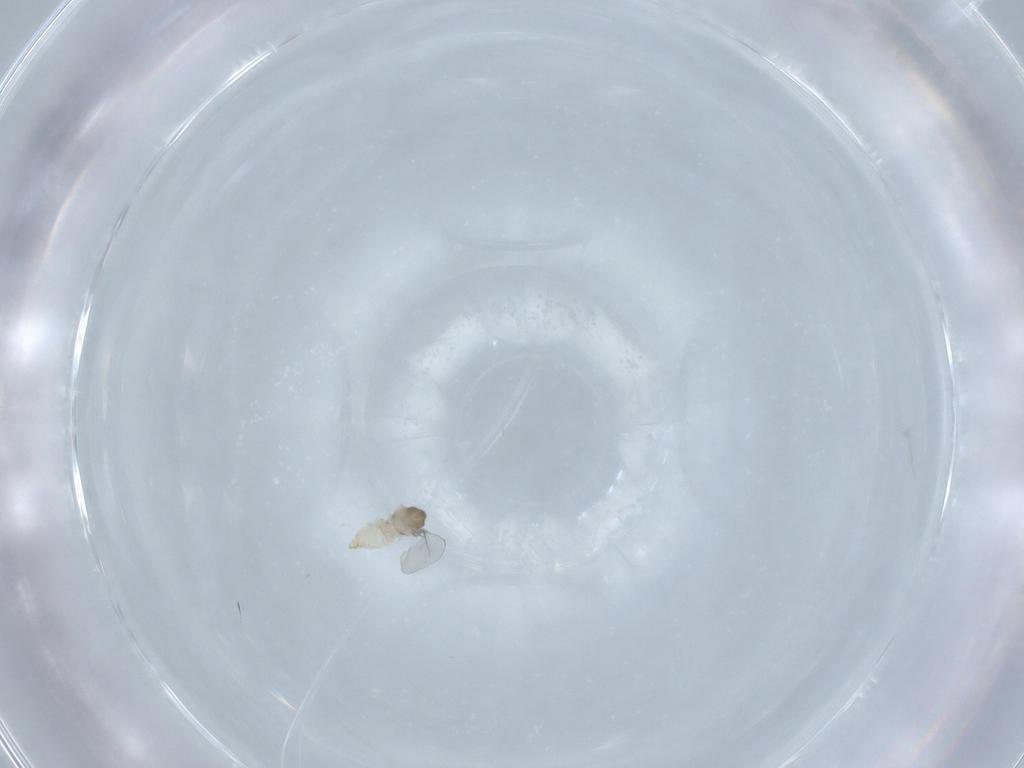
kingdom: Animalia
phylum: Arthropoda
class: Insecta
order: Diptera
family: Cecidomyiidae
